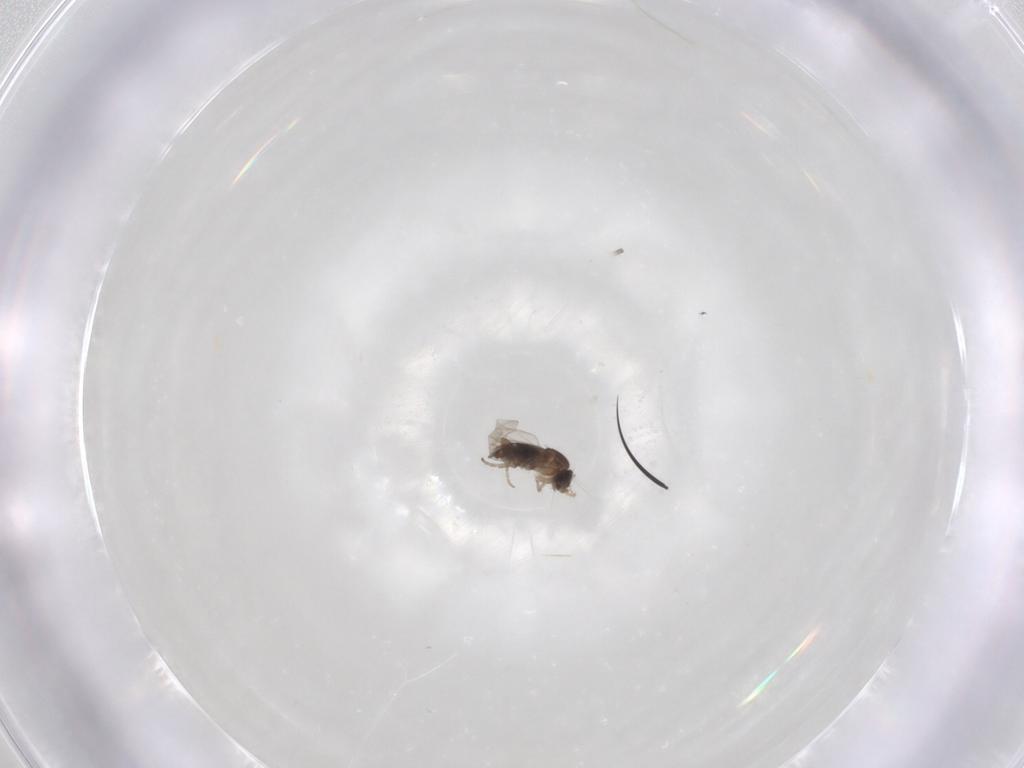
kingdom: Animalia
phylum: Arthropoda
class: Insecta
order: Diptera
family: Phoridae
